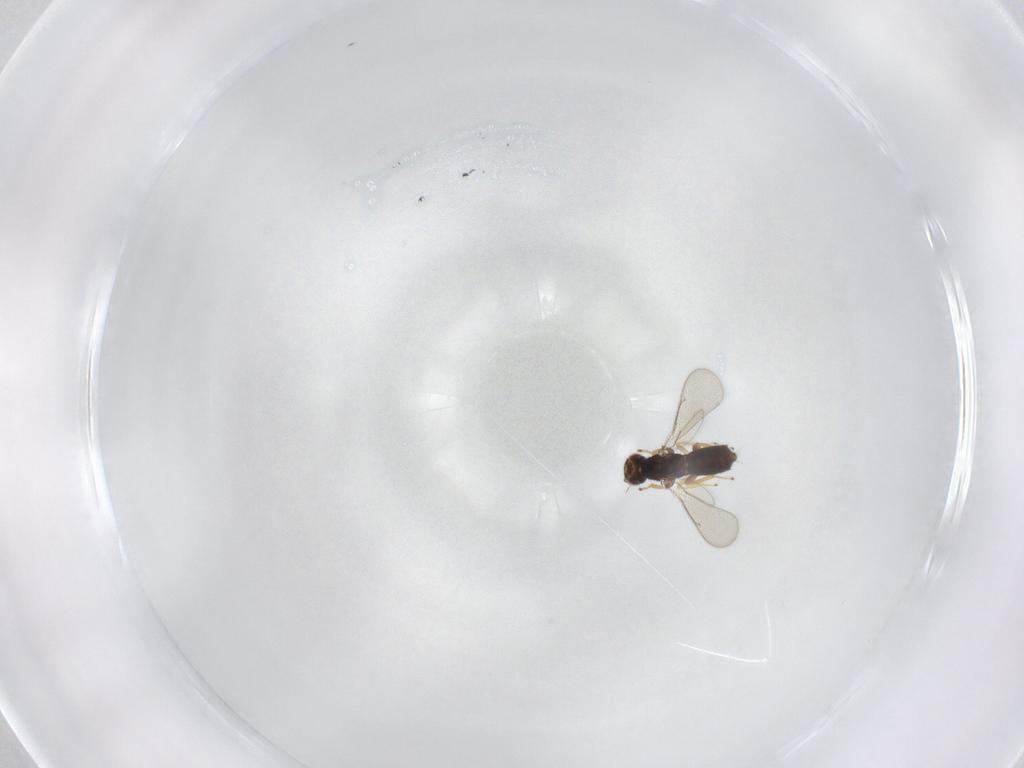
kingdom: Animalia
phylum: Arthropoda
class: Insecta
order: Hymenoptera
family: Eulophidae
